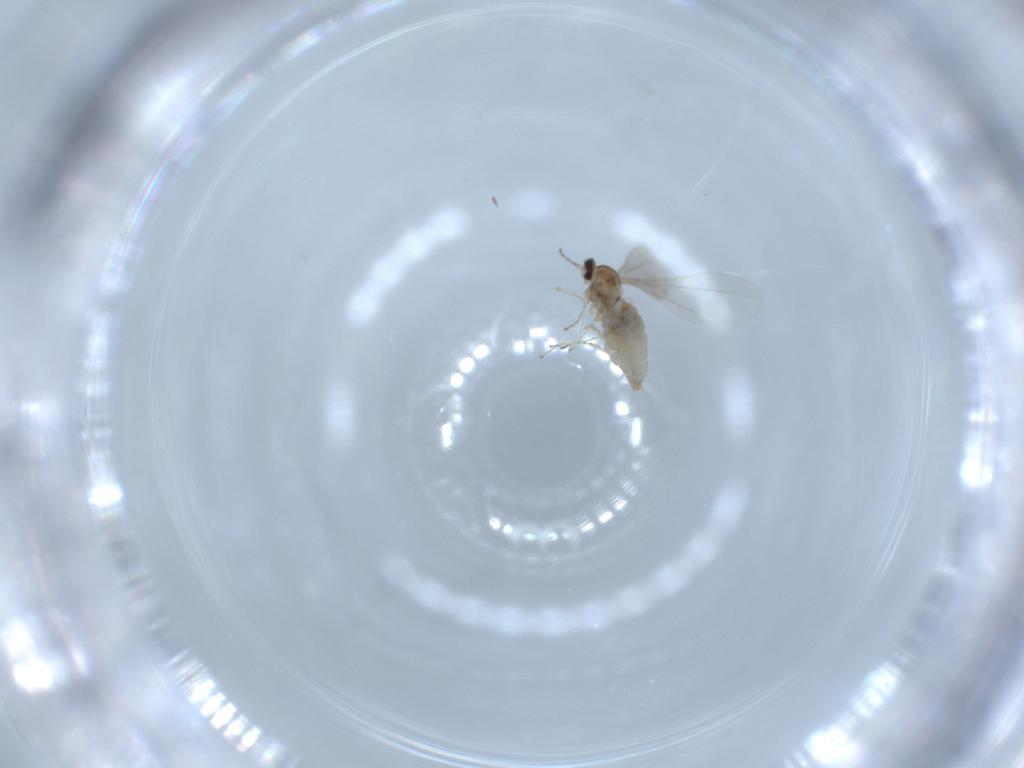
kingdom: Animalia
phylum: Arthropoda
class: Insecta
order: Diptera
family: Cecidomyiidae
